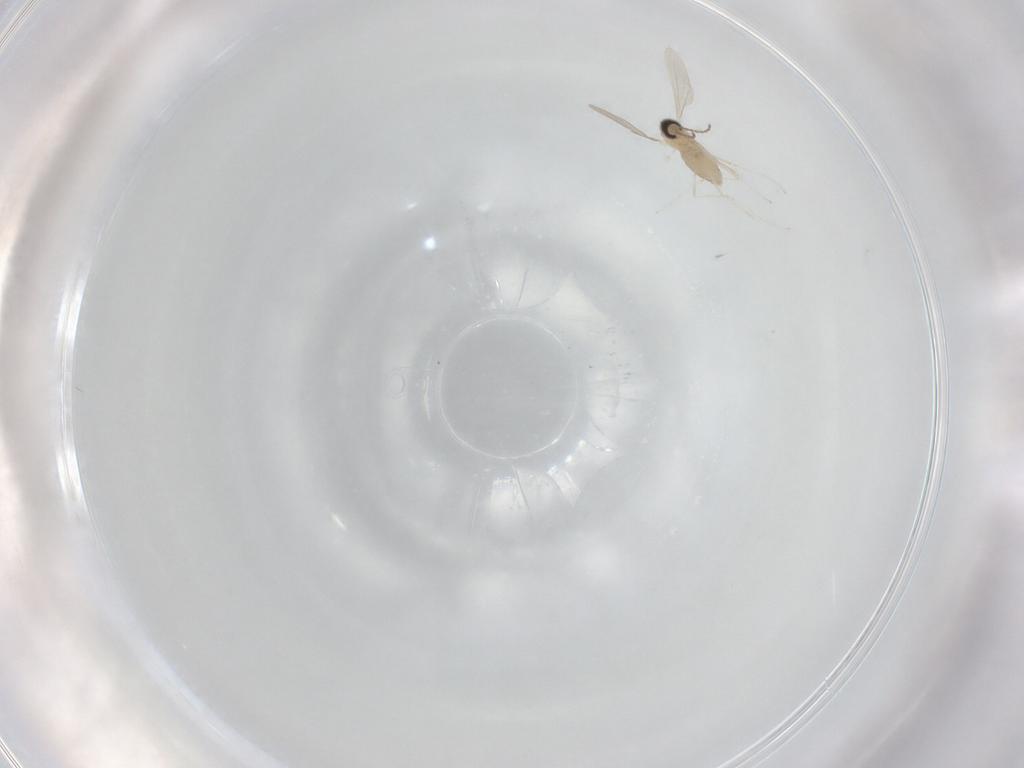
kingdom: Animalia
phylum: Arthropoda
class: Insecta
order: Diptera
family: Cecidomyiidae
